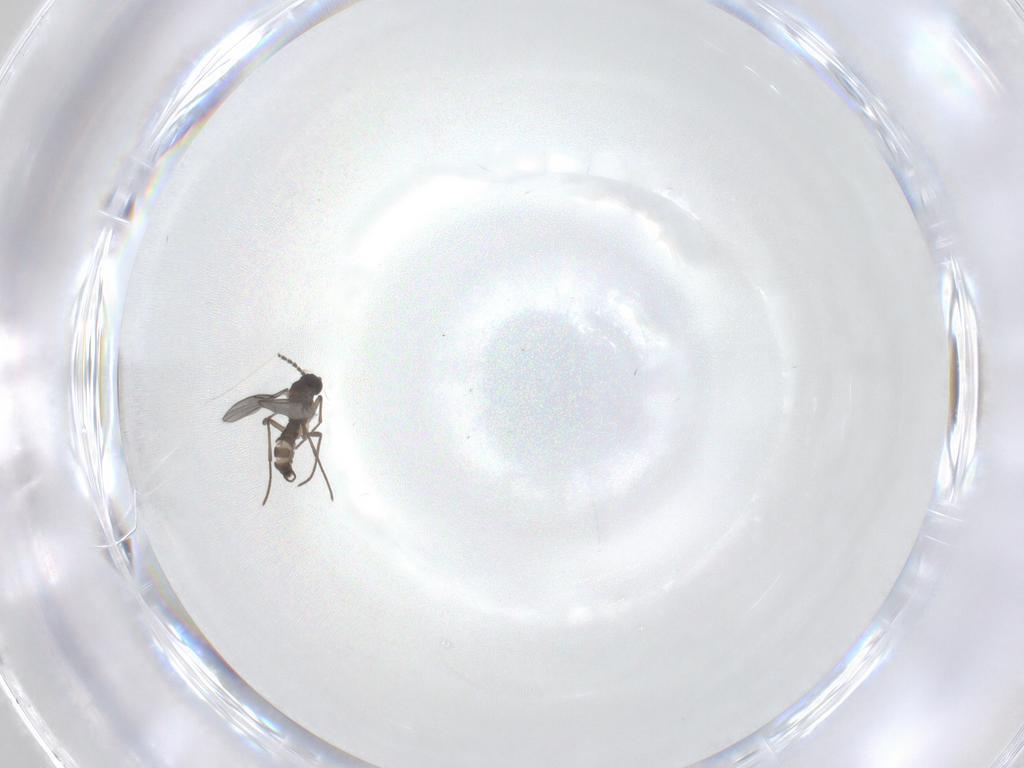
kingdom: Animalia
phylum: Arthropoda
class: Insecta
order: Diptera
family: Sciaridae
